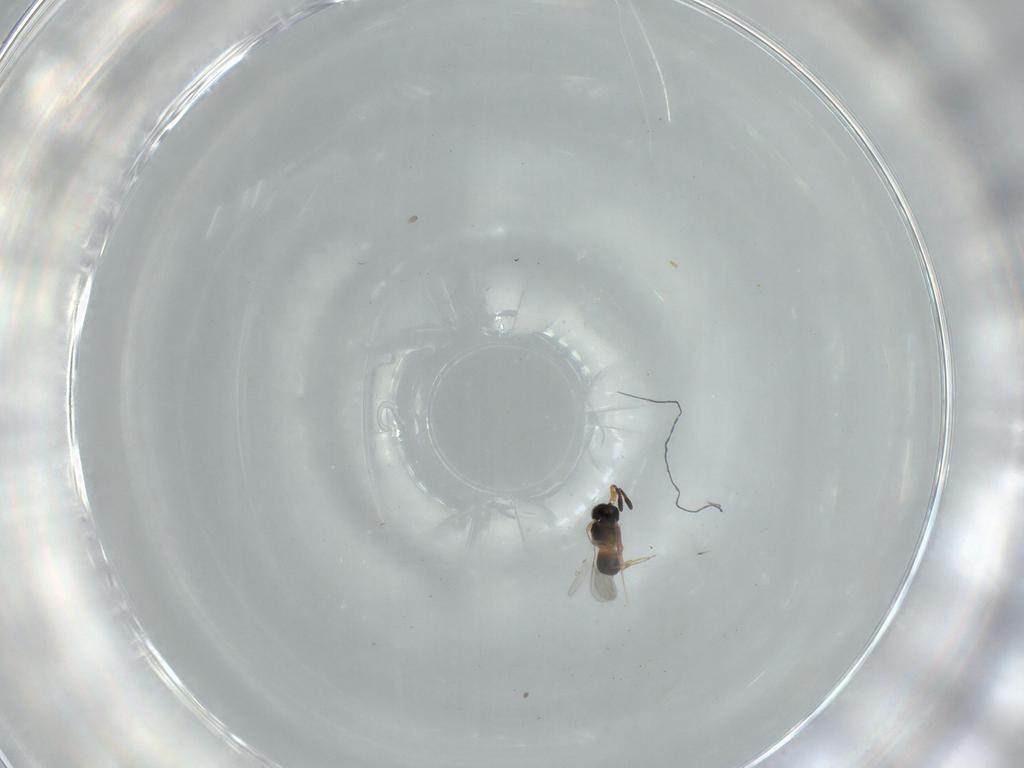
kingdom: Animalia
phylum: Arthropoda
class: Insecta
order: Hymenoptera
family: Scelionidae
